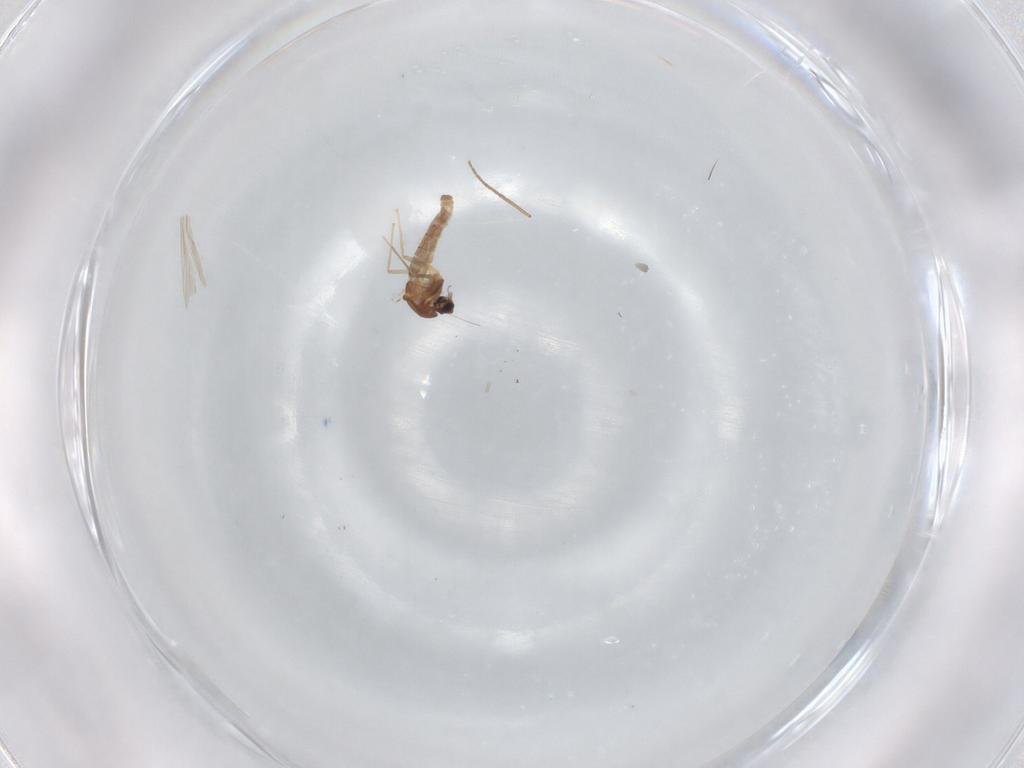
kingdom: Animalia
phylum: Arthropoda
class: Insecta
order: Diptera
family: Chironomidae
